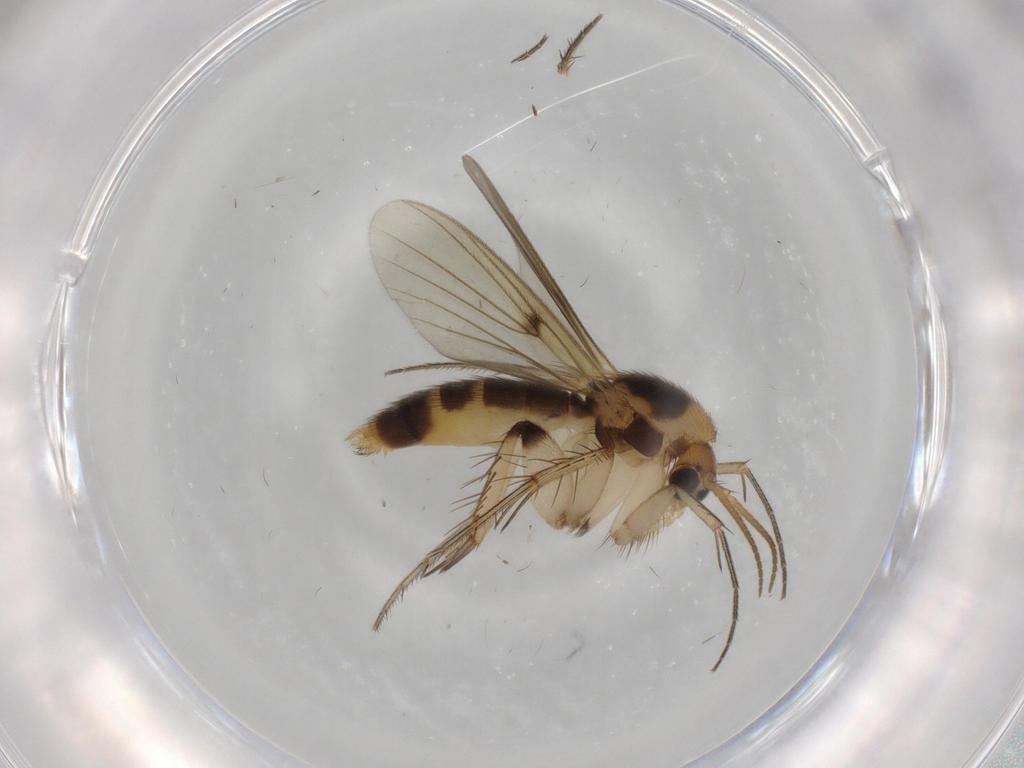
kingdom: Animalia
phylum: Arthropoda
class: Insecta
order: Diptera
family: Mycetophilidae
